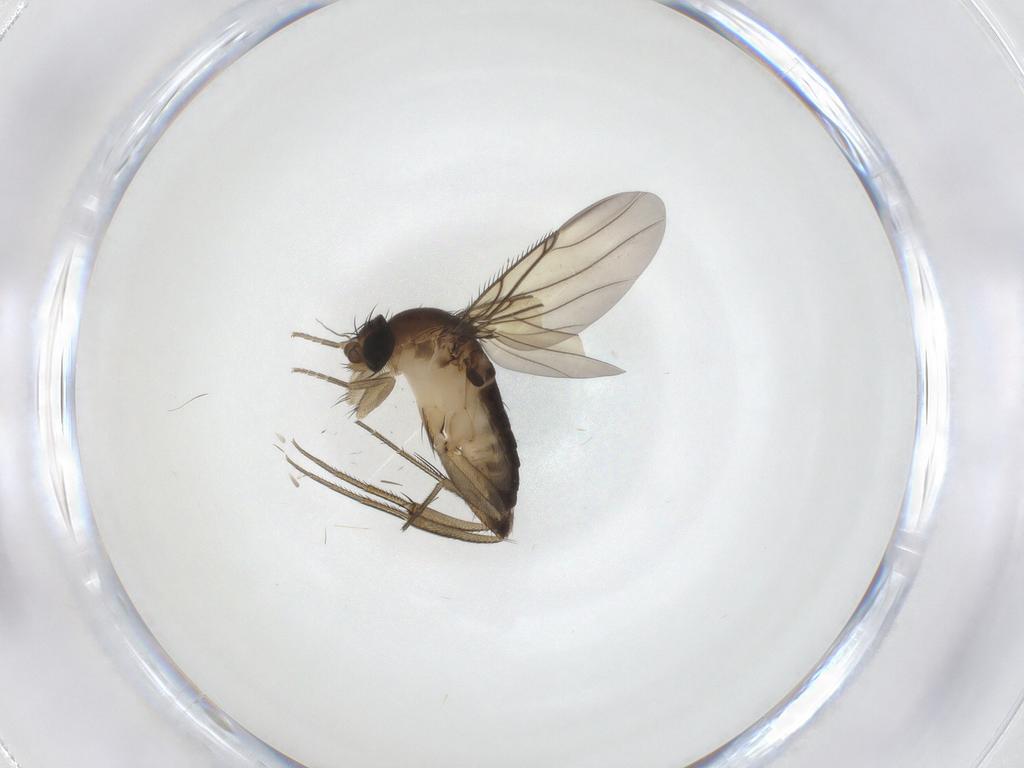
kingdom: Animalia
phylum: Arthropoda
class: Insecta
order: Diptera
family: Phoridae
